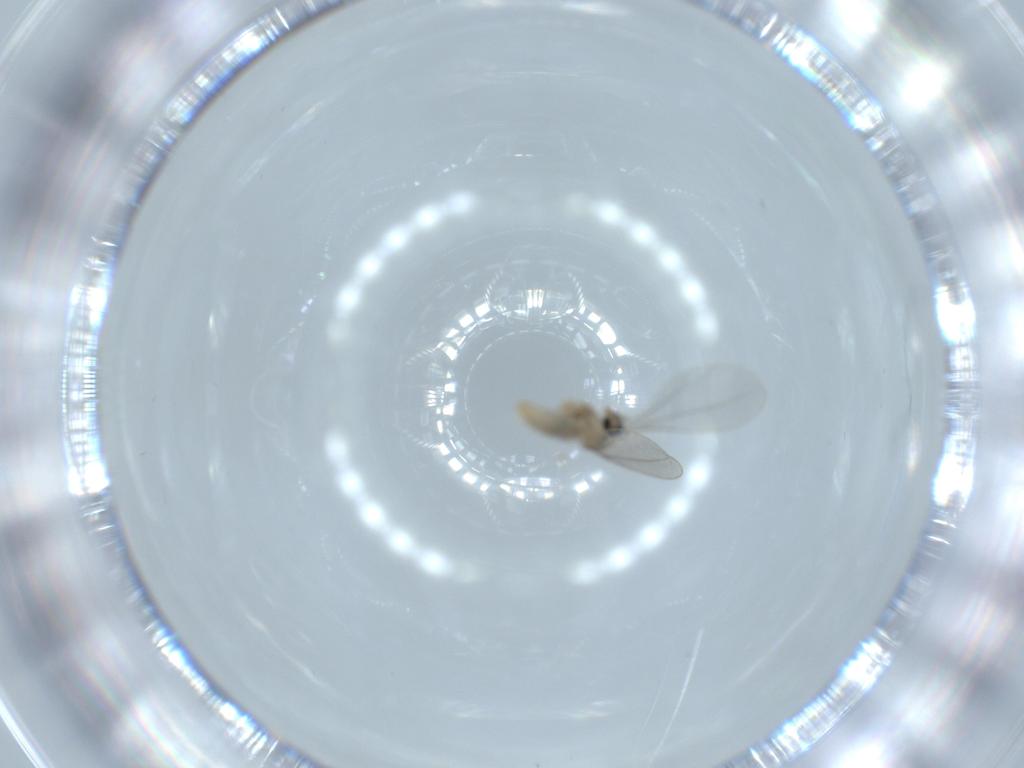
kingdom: Animalia
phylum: Arthropoda
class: Insecta
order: Diptera
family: Cecidomyiidae
